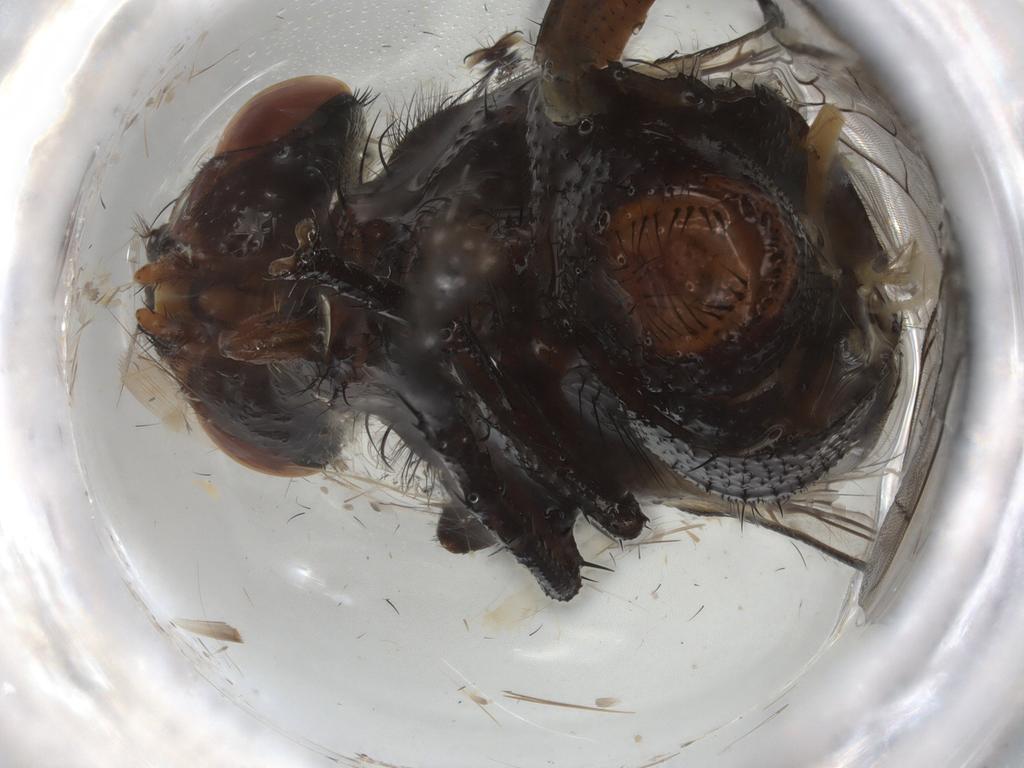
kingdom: Animalia
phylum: Arthropoda
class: Insecta
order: Diptera
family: Sarcophagidae
